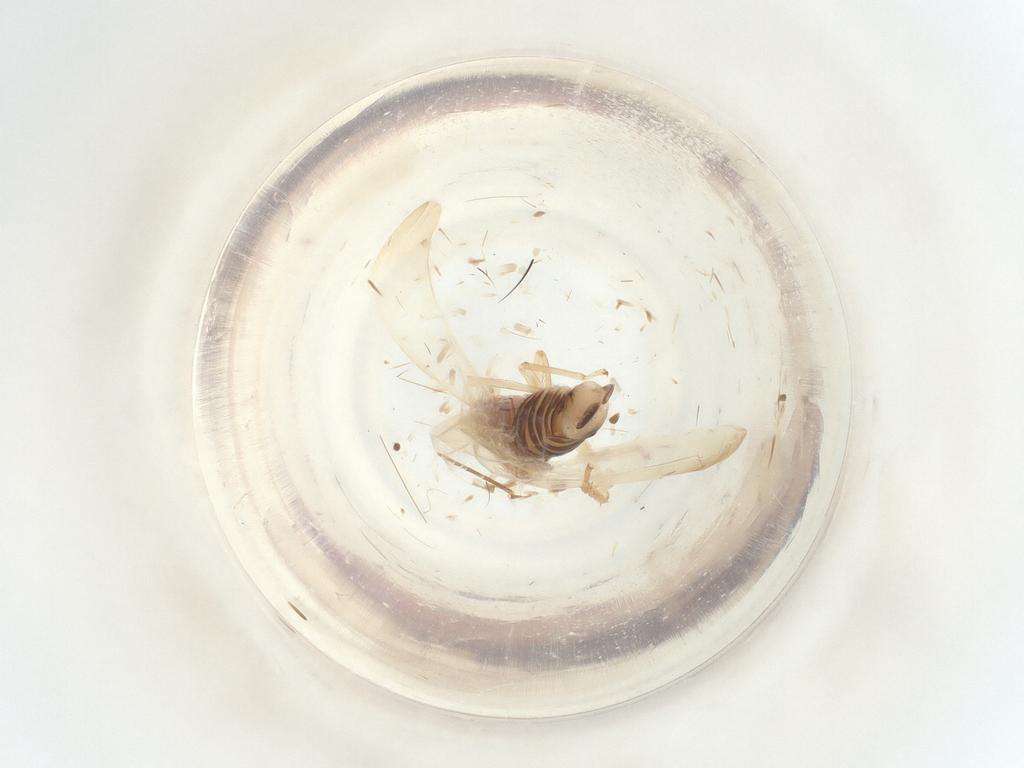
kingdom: Animalia
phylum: Arthropoda
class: Insecta
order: Hemiptera
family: Cicadellidae
